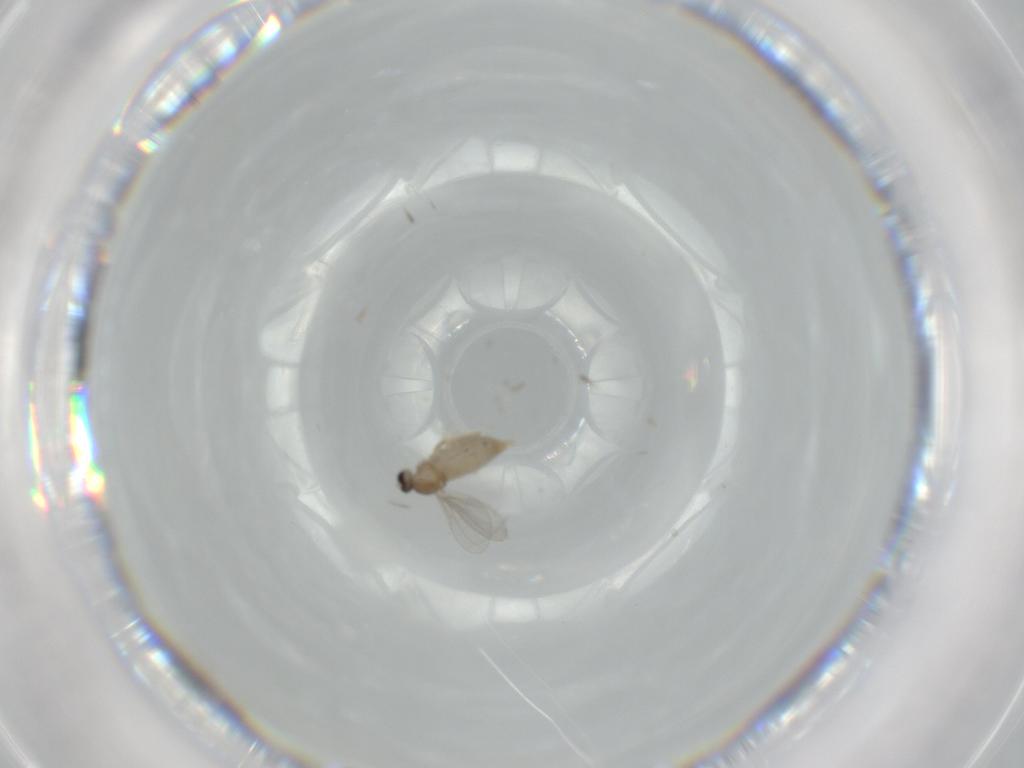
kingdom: Animalia
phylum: Arthropoda
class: Insecta
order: Diptera
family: Cecidomyiidae
